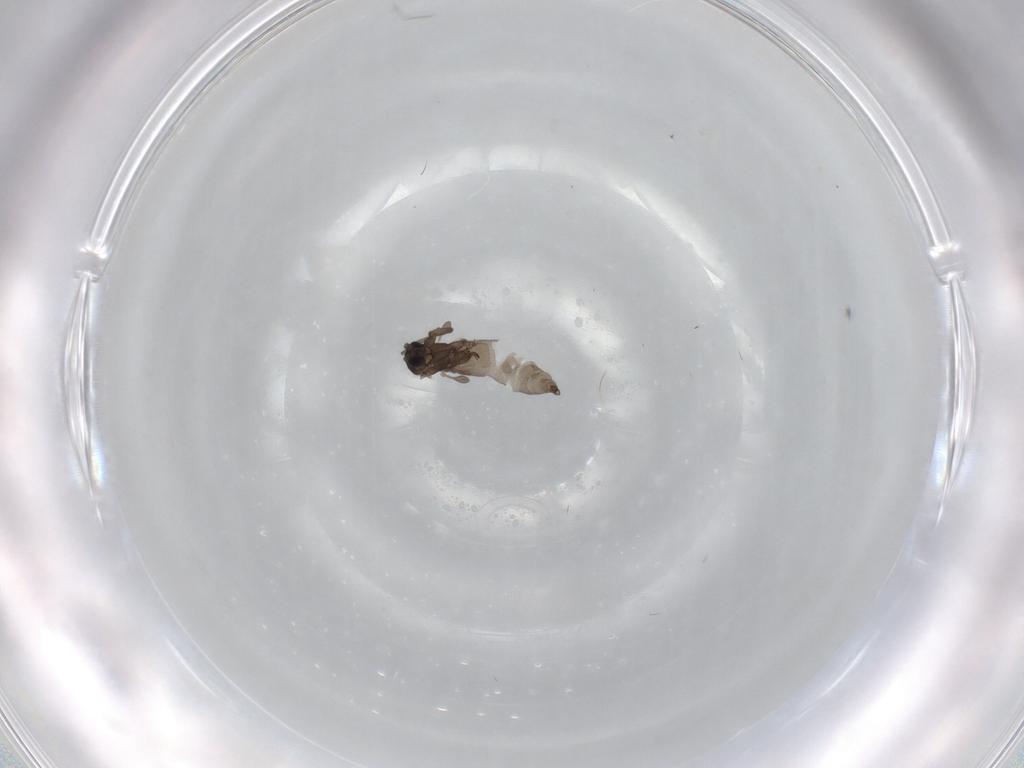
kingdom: Animalia
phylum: Arthropoda
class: Insecta
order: Diptera
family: Sciaridae
